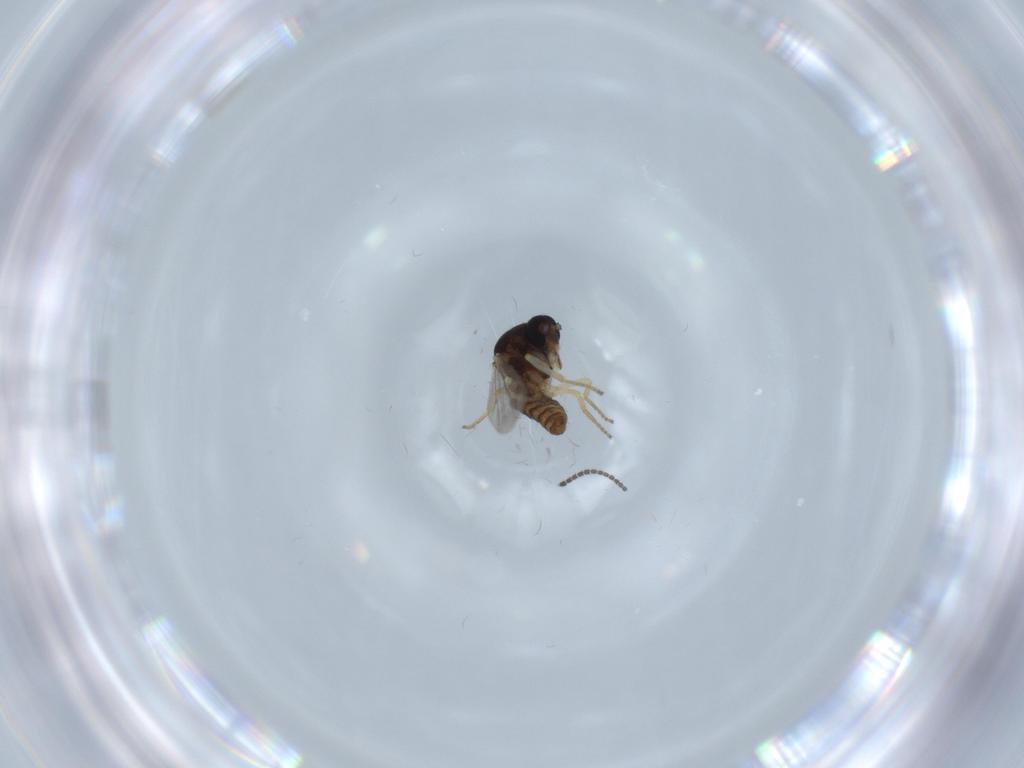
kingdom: Animalia
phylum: Arthropoda
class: Insecta
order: Diptera
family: Ceratopogonidae
